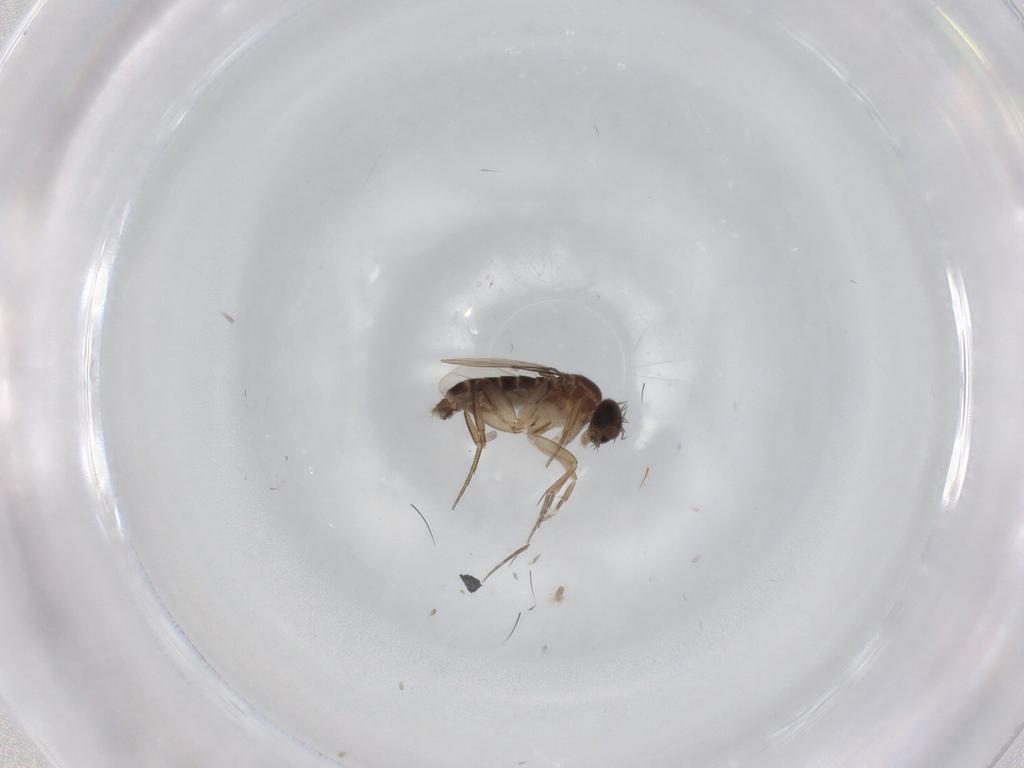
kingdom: Animalia
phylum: Arthropoda
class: Insecta
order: Diptera
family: Phoridae
